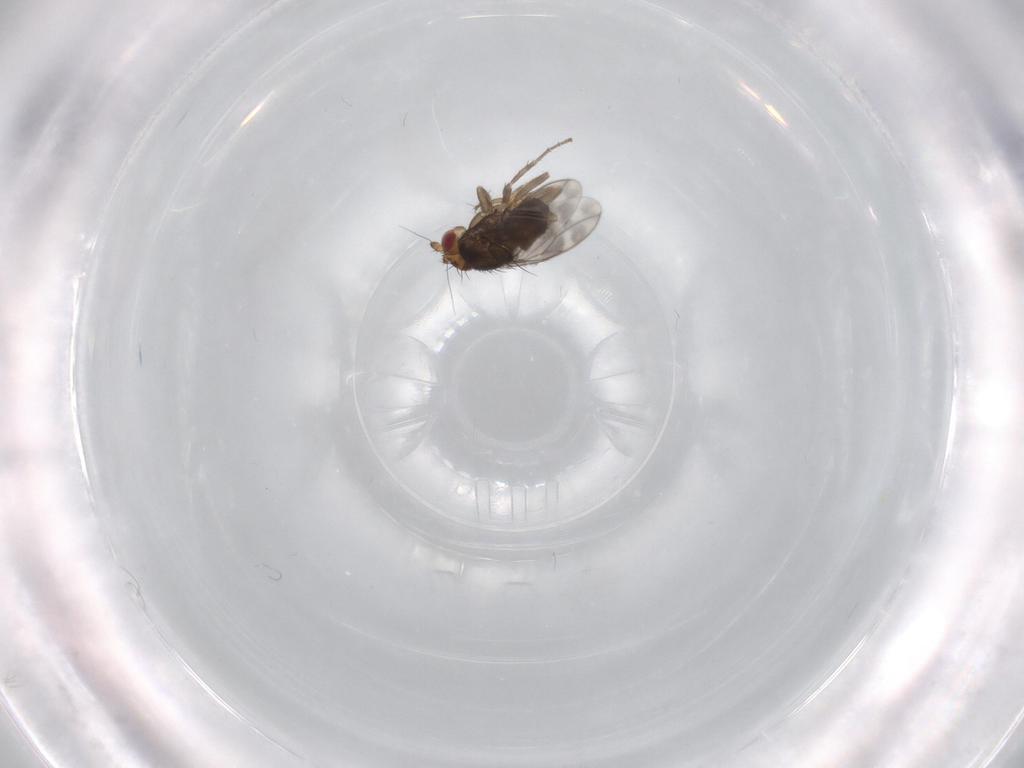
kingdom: Animalia
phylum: Arthropoda
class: Insecta
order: Diptera
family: Sphaeroceridae
